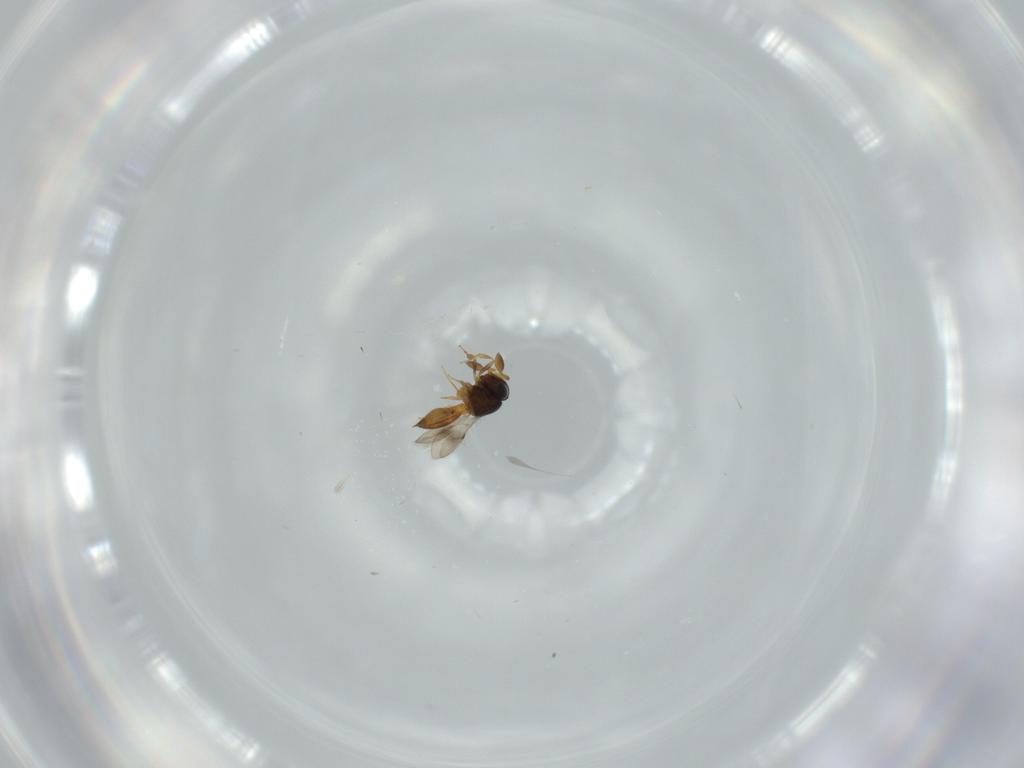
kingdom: Animalia
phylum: Arthropoda
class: Insecta
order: Hymenoptera
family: Scelionidae
